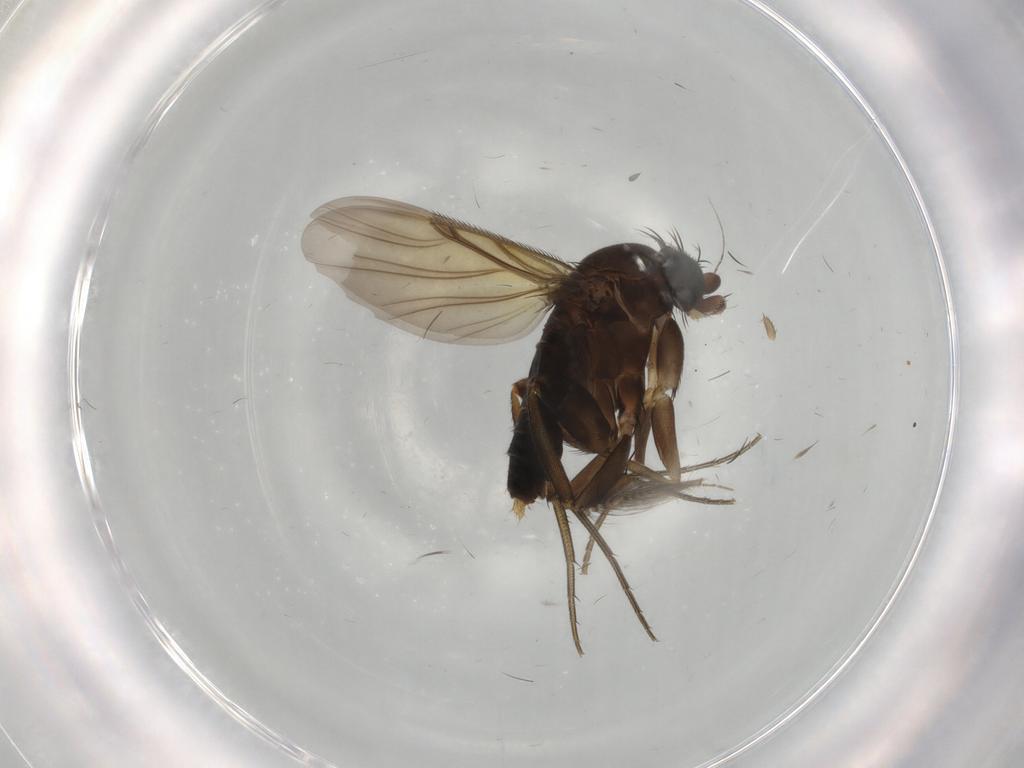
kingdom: Animalia
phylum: Arthropoda
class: Insecta
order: Diptera
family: Phoridae
